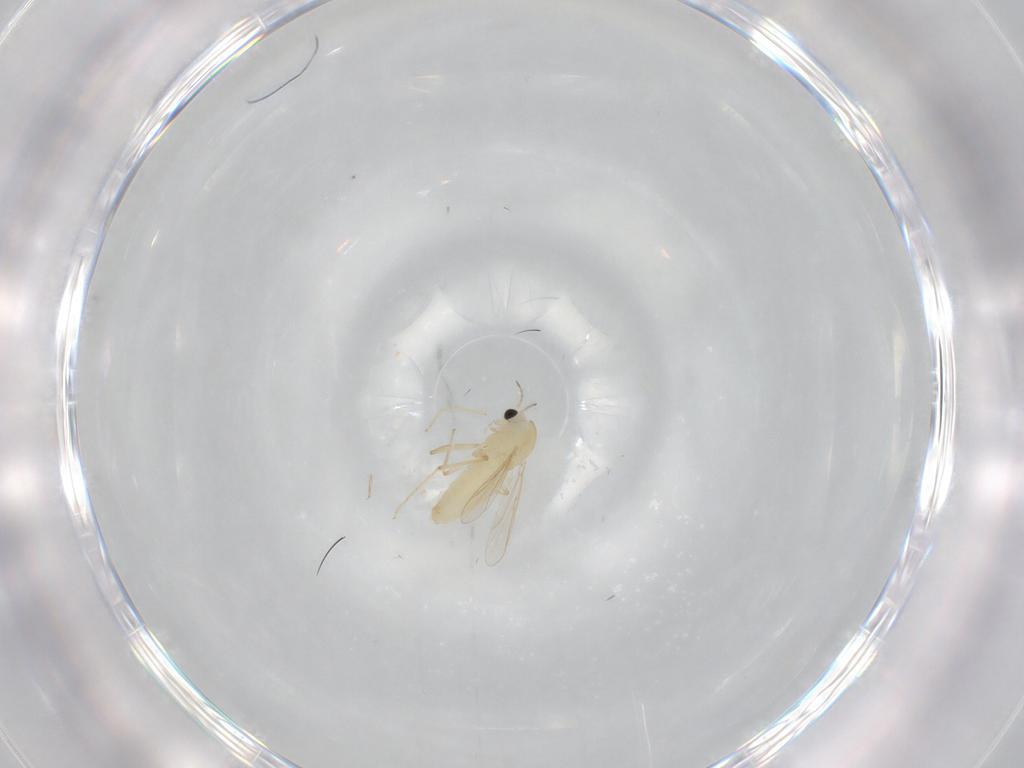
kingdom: Animalia
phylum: Arthropoda
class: Insecta
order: Diptera
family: Chironomidae
